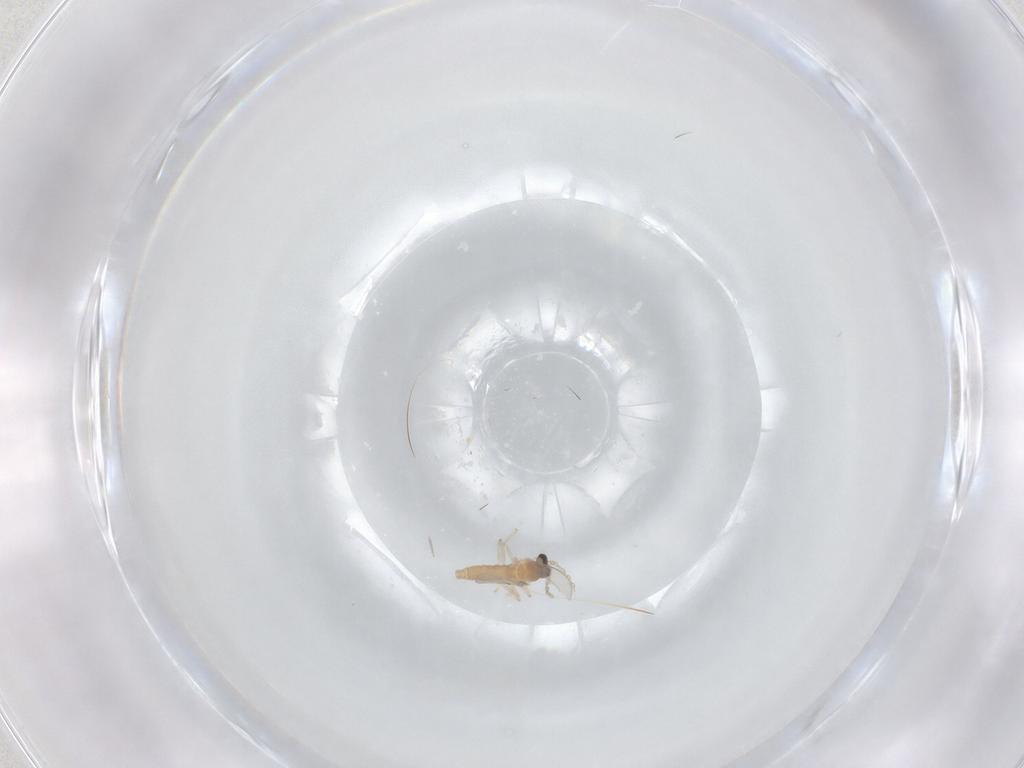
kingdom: Animalia
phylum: Arthropoda
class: Insecta
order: Diptera
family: Cecidomyiidae
